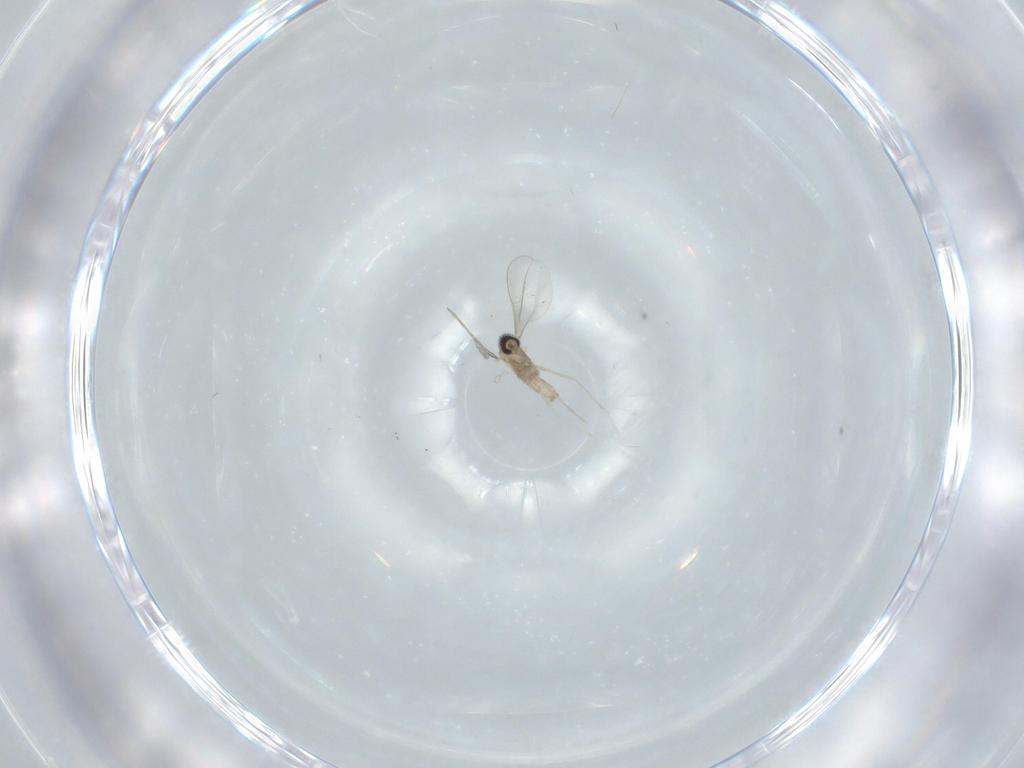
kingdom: Animalia
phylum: Arthropoda
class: Insecta
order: Diptera
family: Cecidomyiidae
